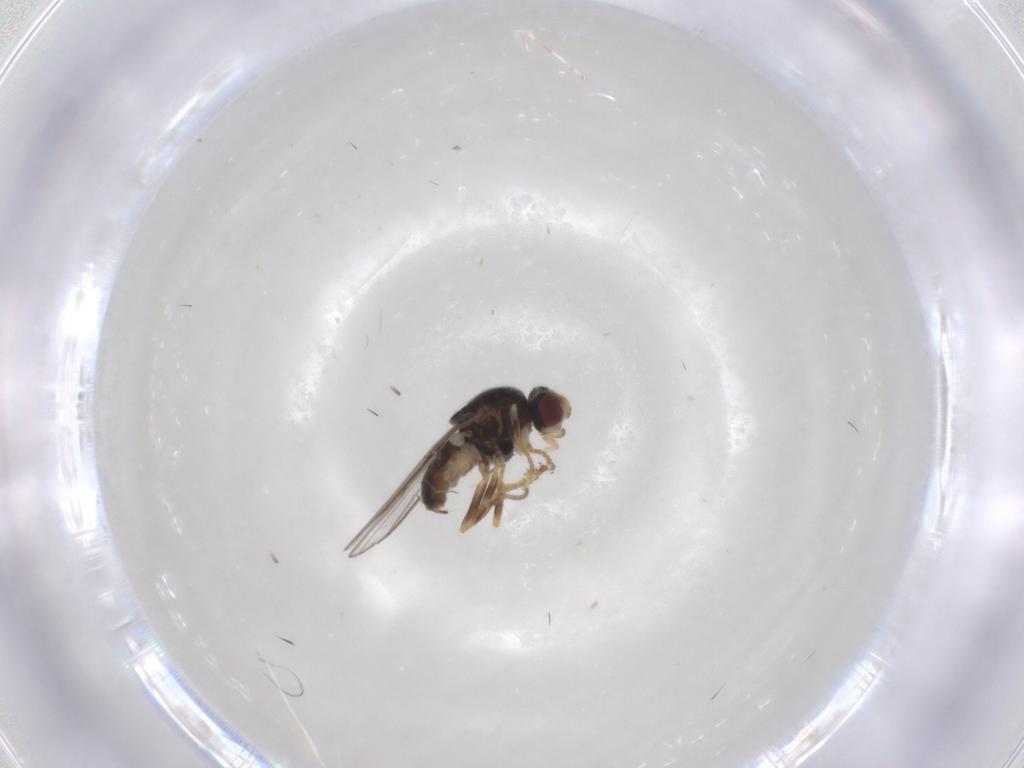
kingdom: Animalia
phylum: Arthropoda
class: Insecta
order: Diptera
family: Chloropidae
